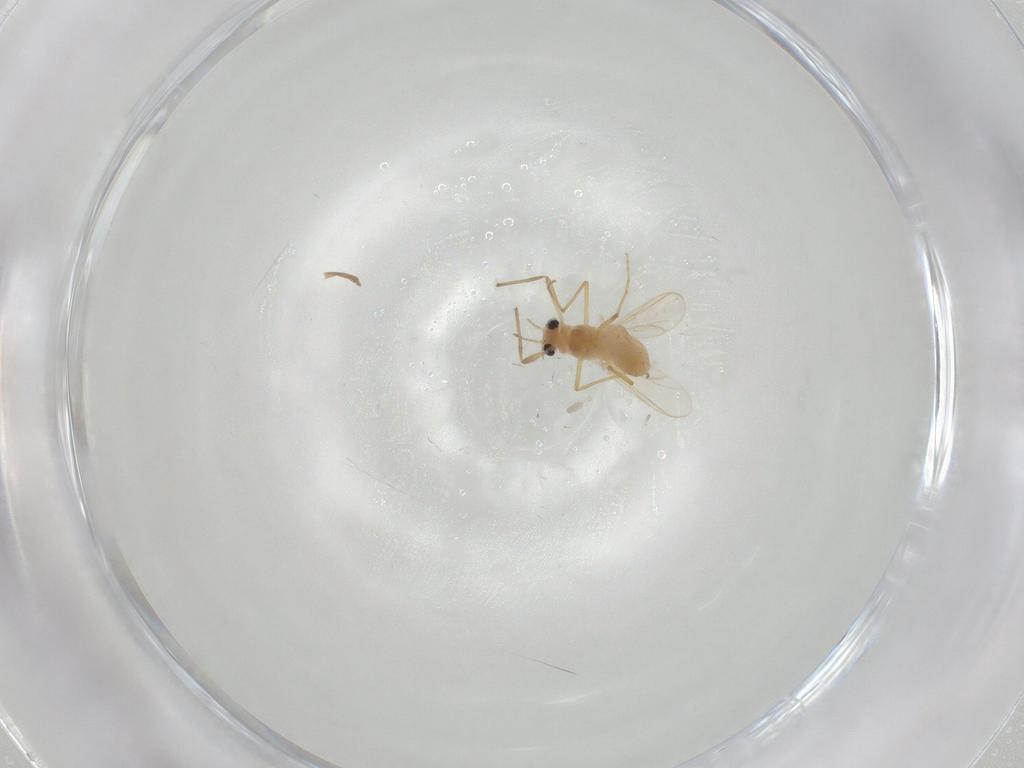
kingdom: Animalia
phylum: Arthropoda
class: Insecta
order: Diptera
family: Chironomidae
